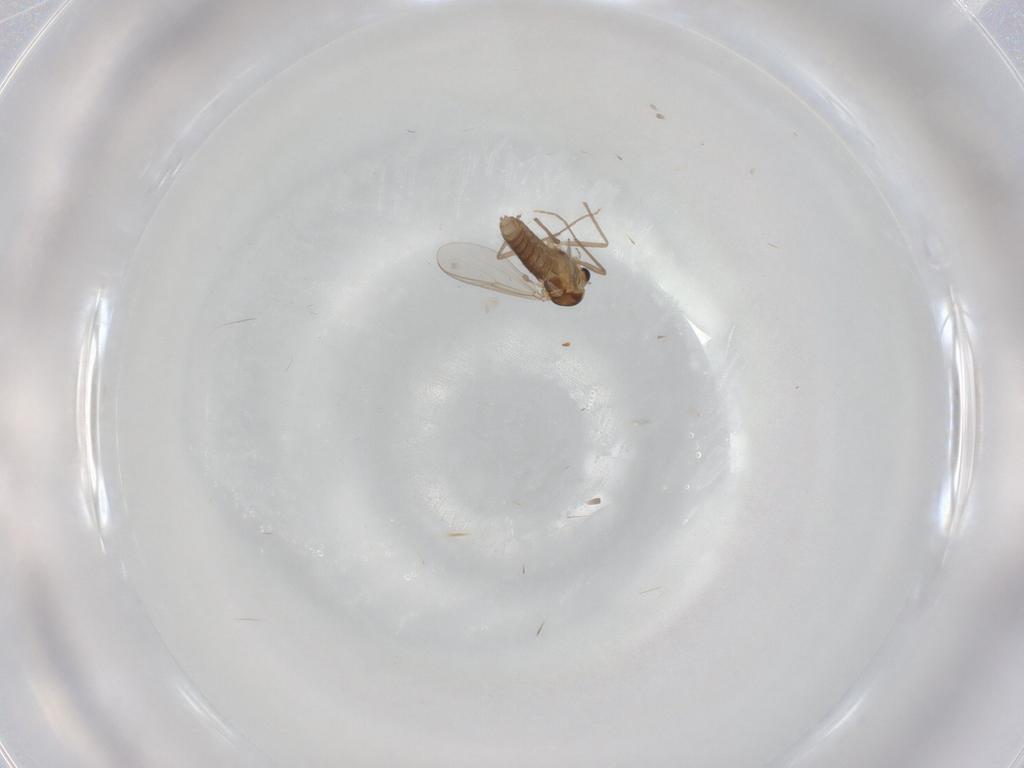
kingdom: Animalia
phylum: Arthropoda
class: Insecta
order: Diptera
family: Chironomidae
